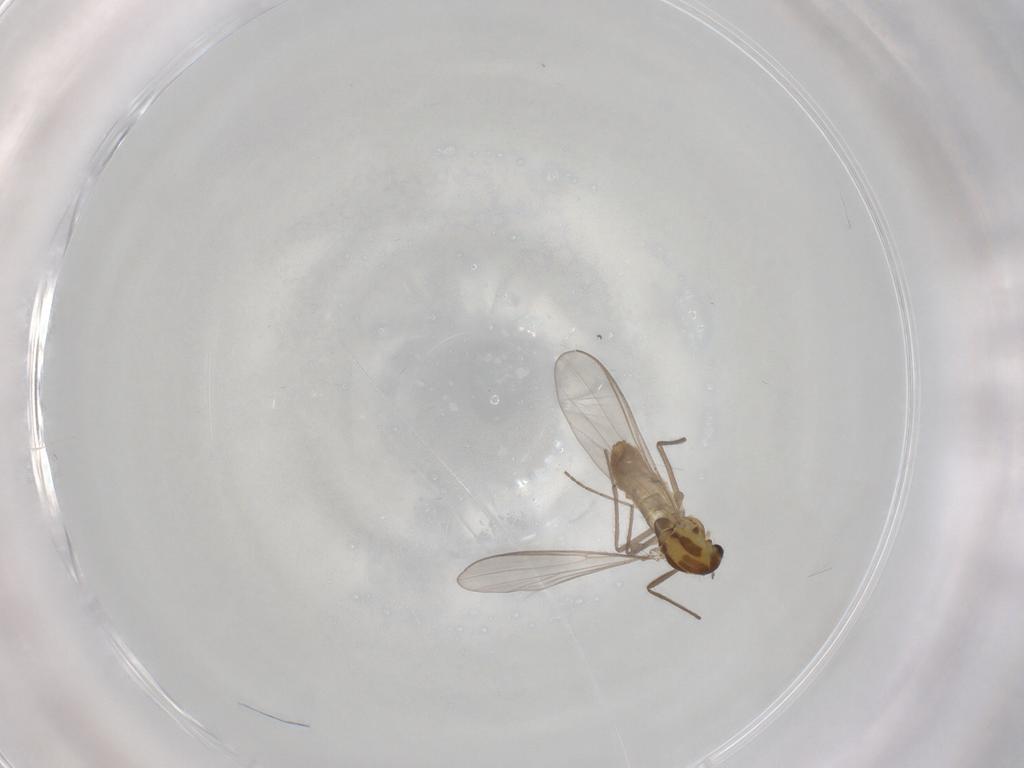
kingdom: Animalia
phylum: Arthropoda
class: Insecta
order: Diptera
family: Chironomidae
